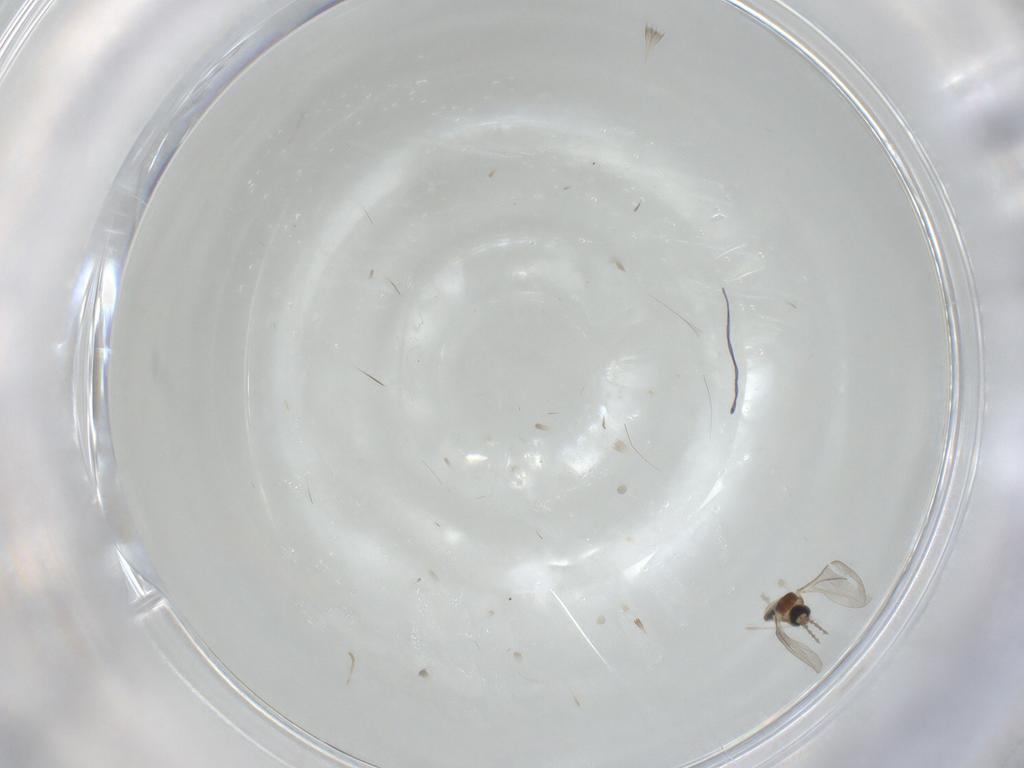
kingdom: Animalia
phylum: Arthropoda
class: Insecta
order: Diptera
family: Cecidomyiidae
